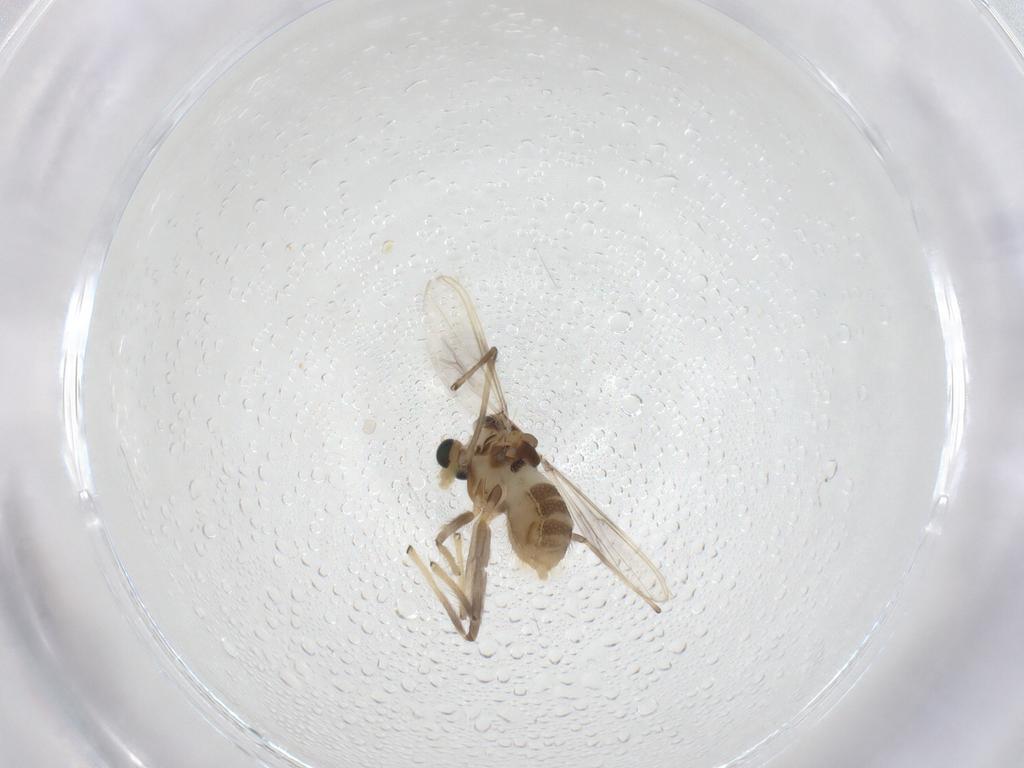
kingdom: Animalia
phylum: Arthropoda
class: Insecta
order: Diptera
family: Chironomidae
